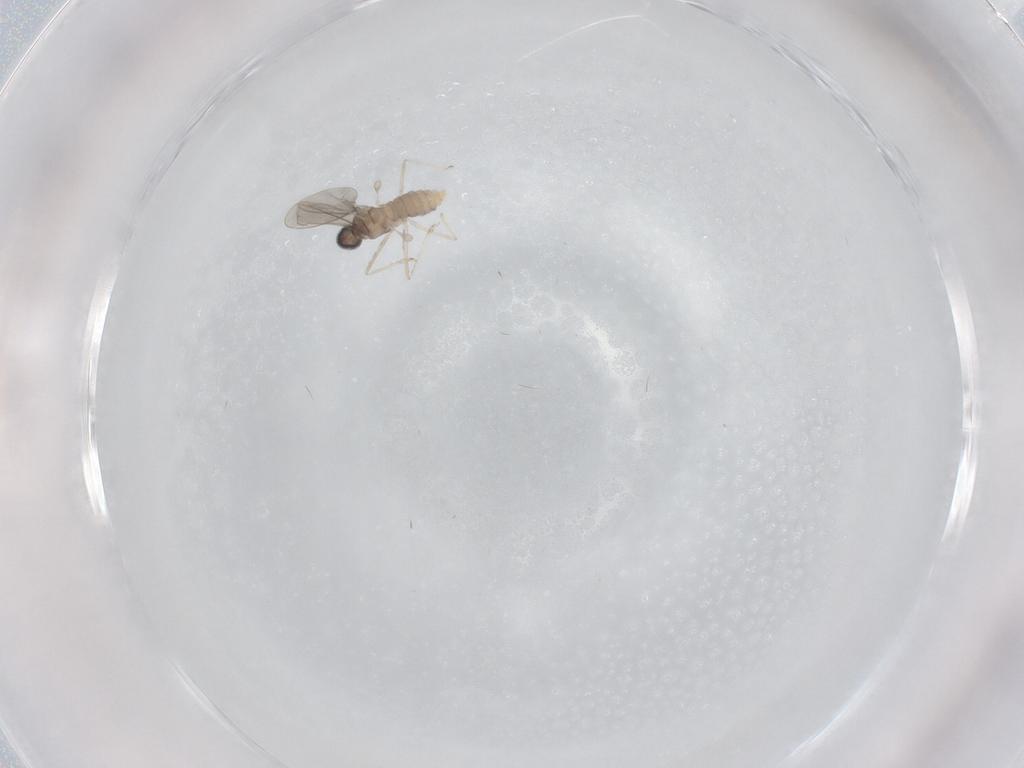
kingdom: Animalia
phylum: Arthropoda
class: Insecta
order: Diptera
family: Cecidomyiidae
